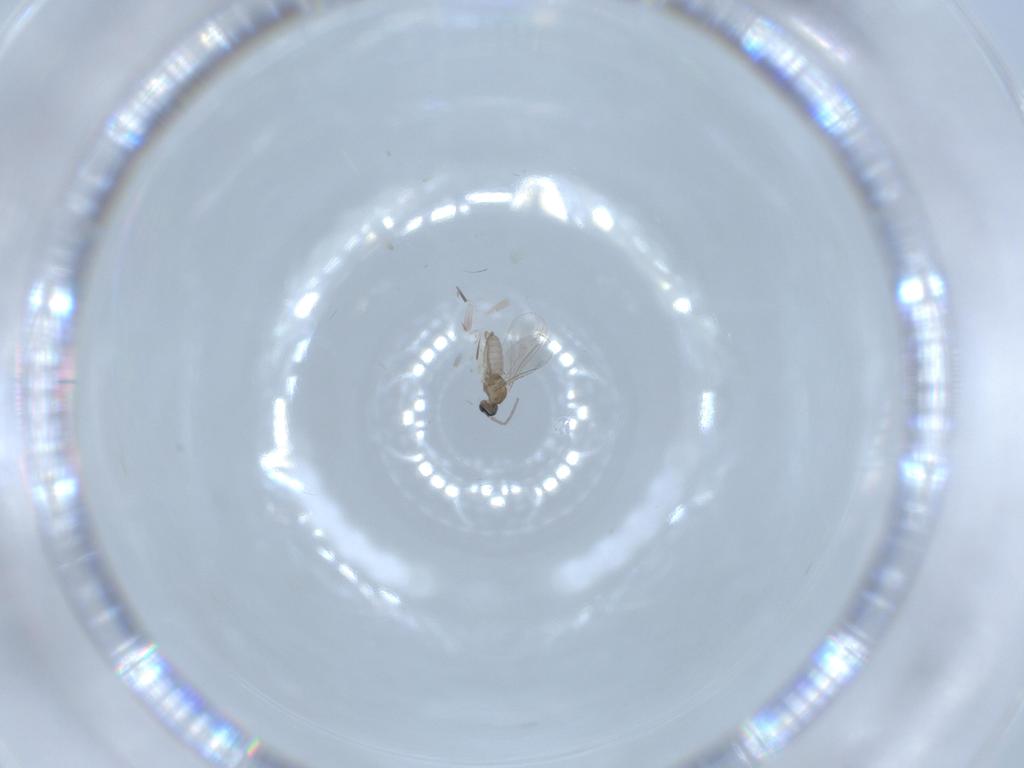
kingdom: Animalia
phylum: Arthropoda
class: Insecta
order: Diptera
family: Cecidomyiidae
